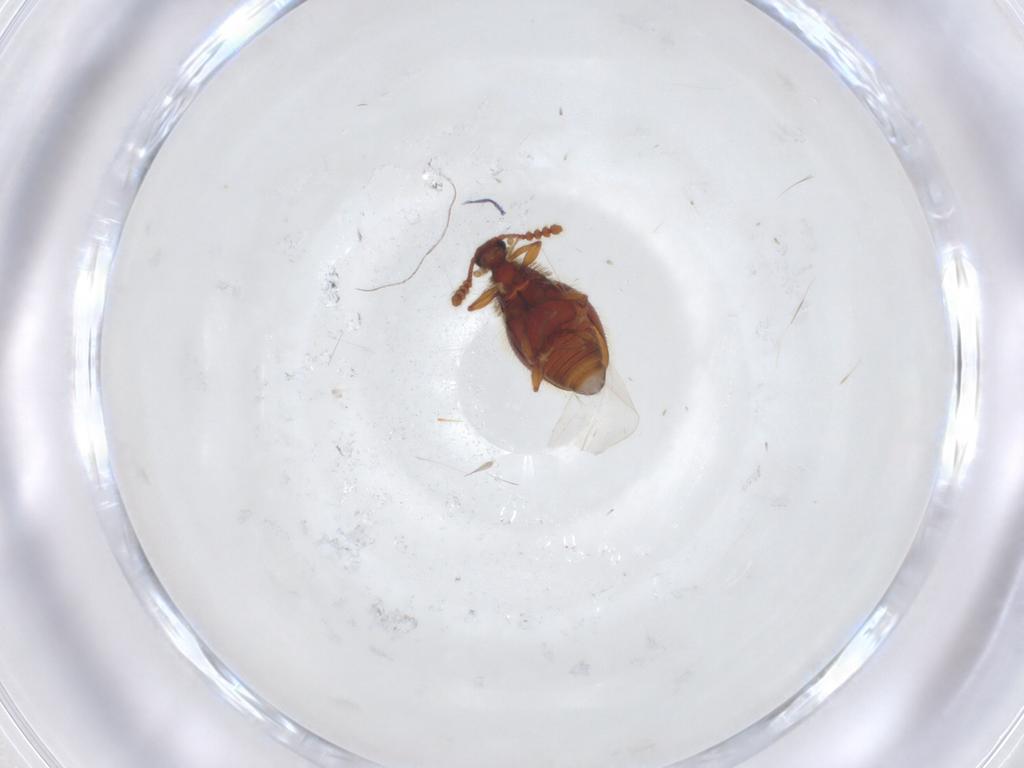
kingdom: Animalia
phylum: Arthropoda
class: Insecta
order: Coleoptera
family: Staphylinidae
